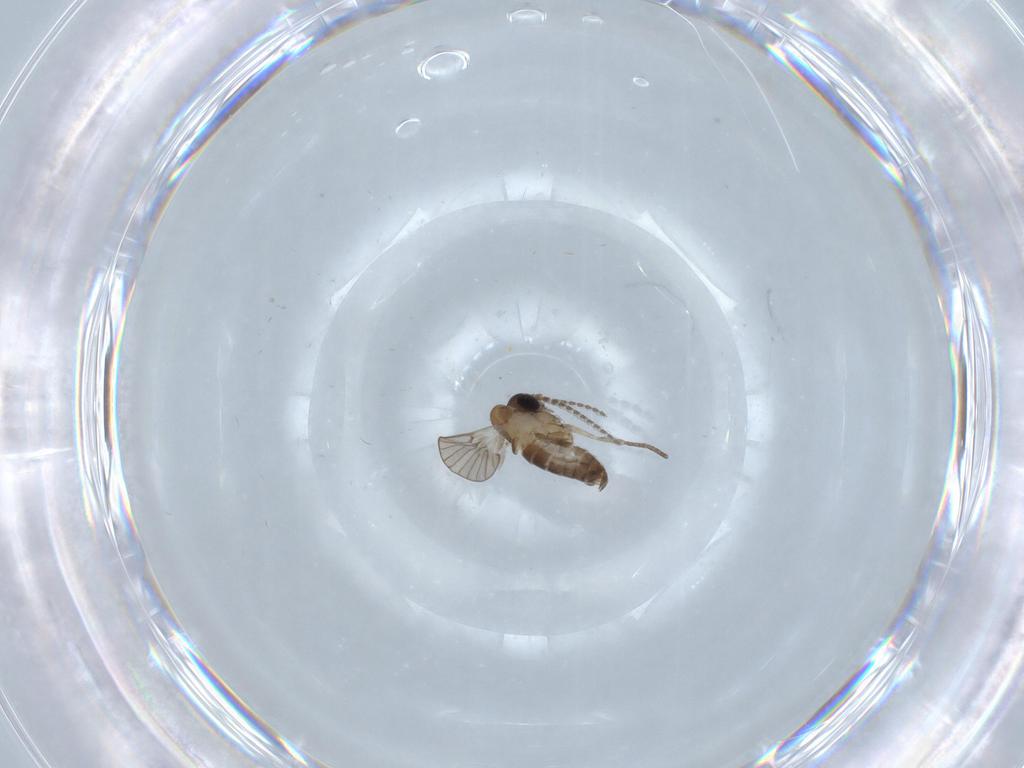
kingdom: Animalia
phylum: Arthropoda
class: Insecta
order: Diptera
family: Psychodidae
